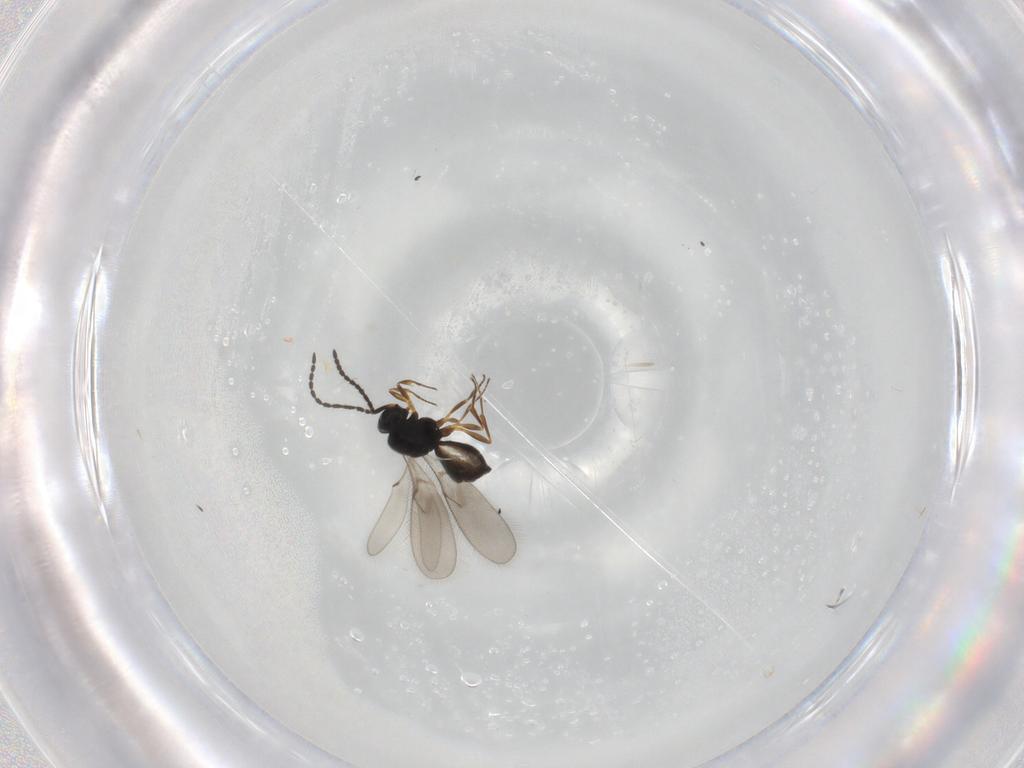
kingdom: Animalia
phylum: Arthropoda
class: Insecta
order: Hymenoptera
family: Scelionidae
